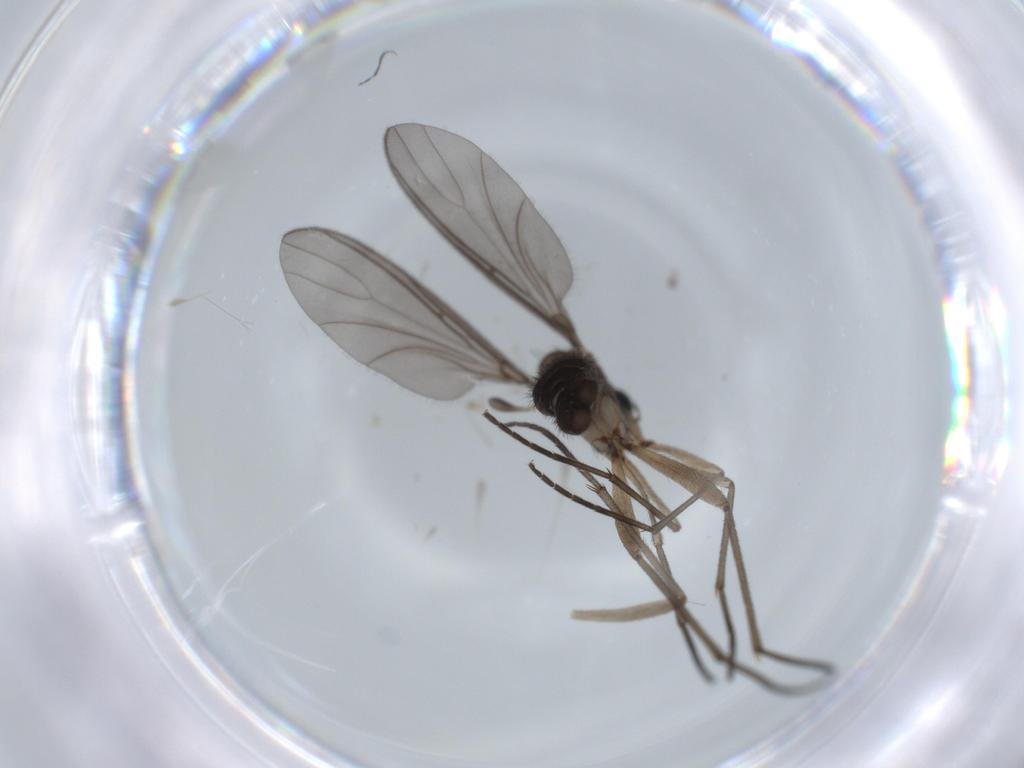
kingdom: Animalia
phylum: Arthropoda
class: Insecta
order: Diptera
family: Sciaridae
